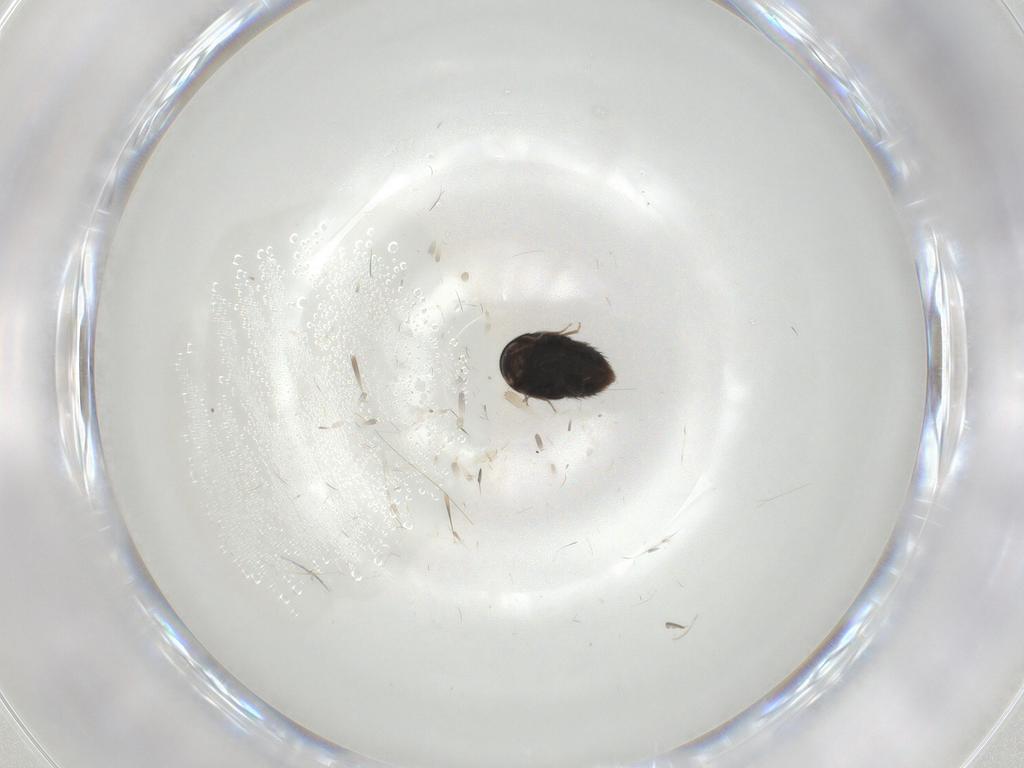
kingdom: Animalia
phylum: Arthropoda
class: Insecta
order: Coleoptera
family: Staphylinidae
